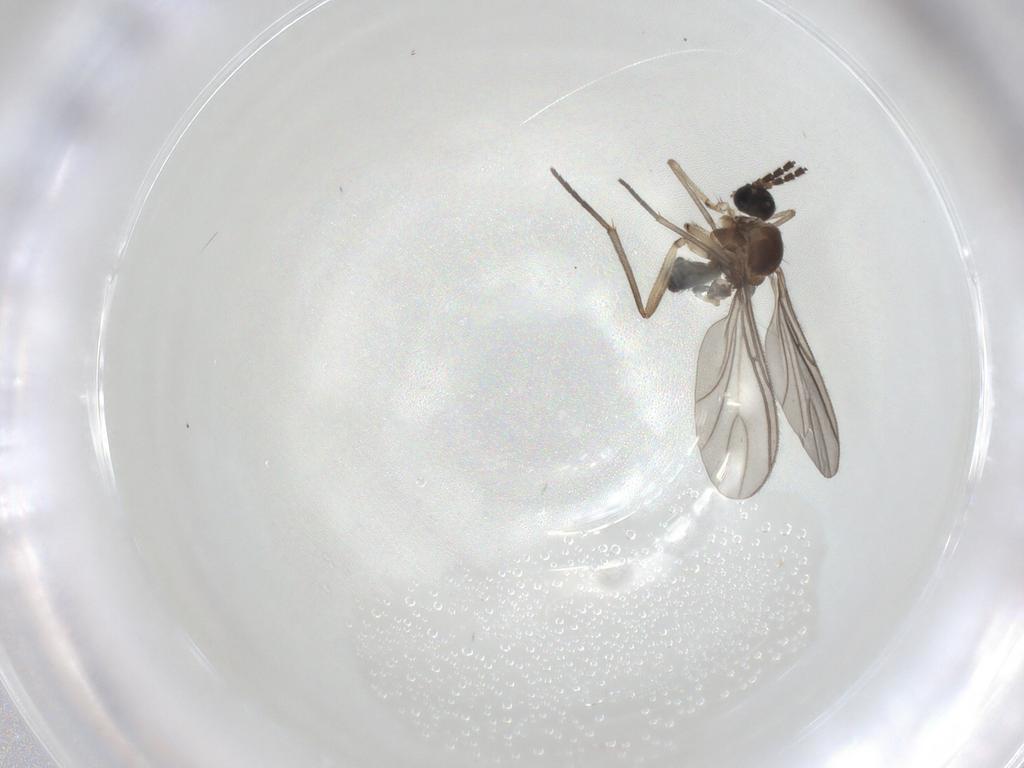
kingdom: Animalia
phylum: Arthropoda
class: Insecta
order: Diptera
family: Sciaridae
